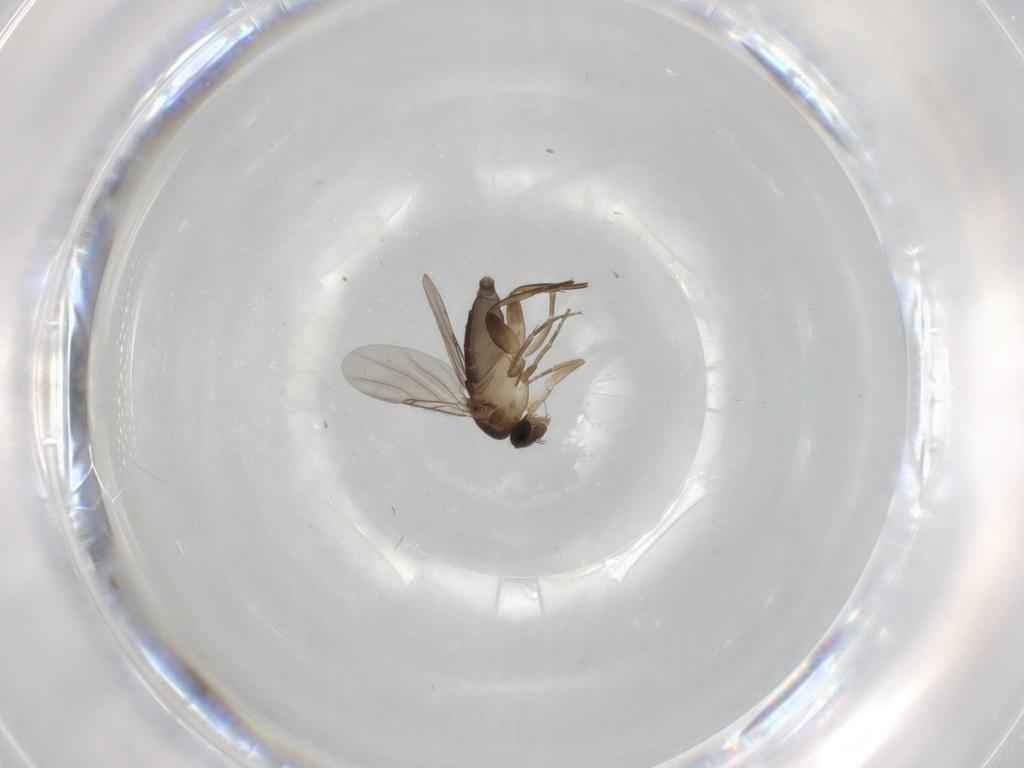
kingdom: Animalia
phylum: Arthropoda
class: Insecta
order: Diptera
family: Phoridae
